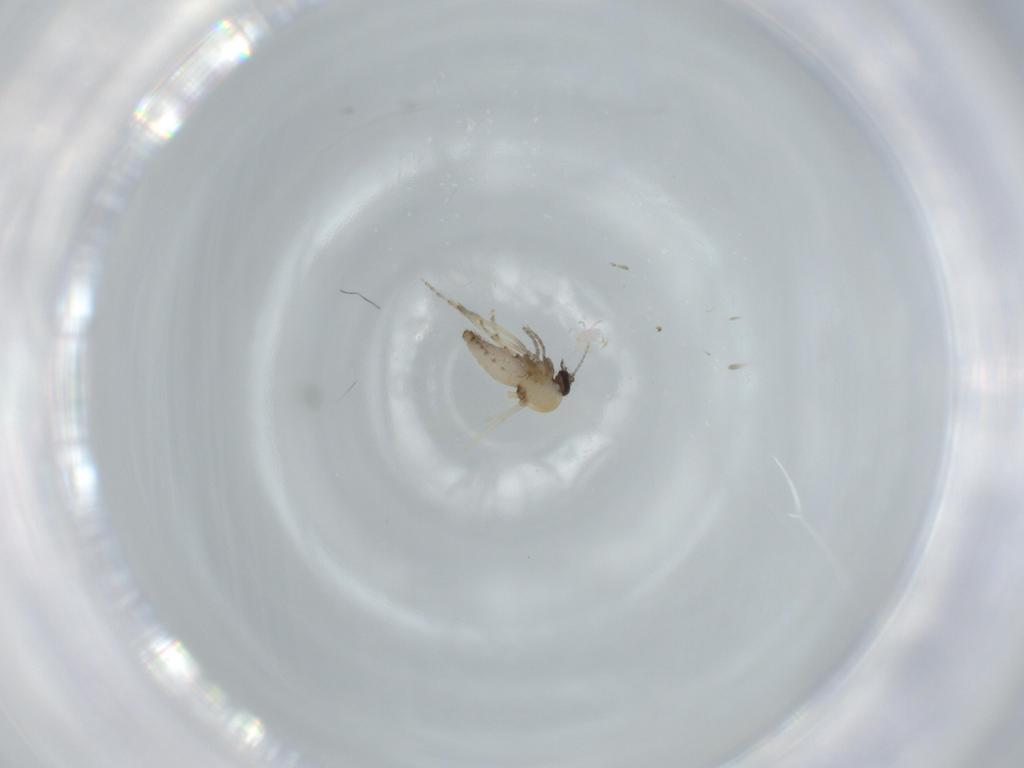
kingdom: Animalia
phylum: Arthropoda
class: Insecta
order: Diptera
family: Ceratopogonidae
